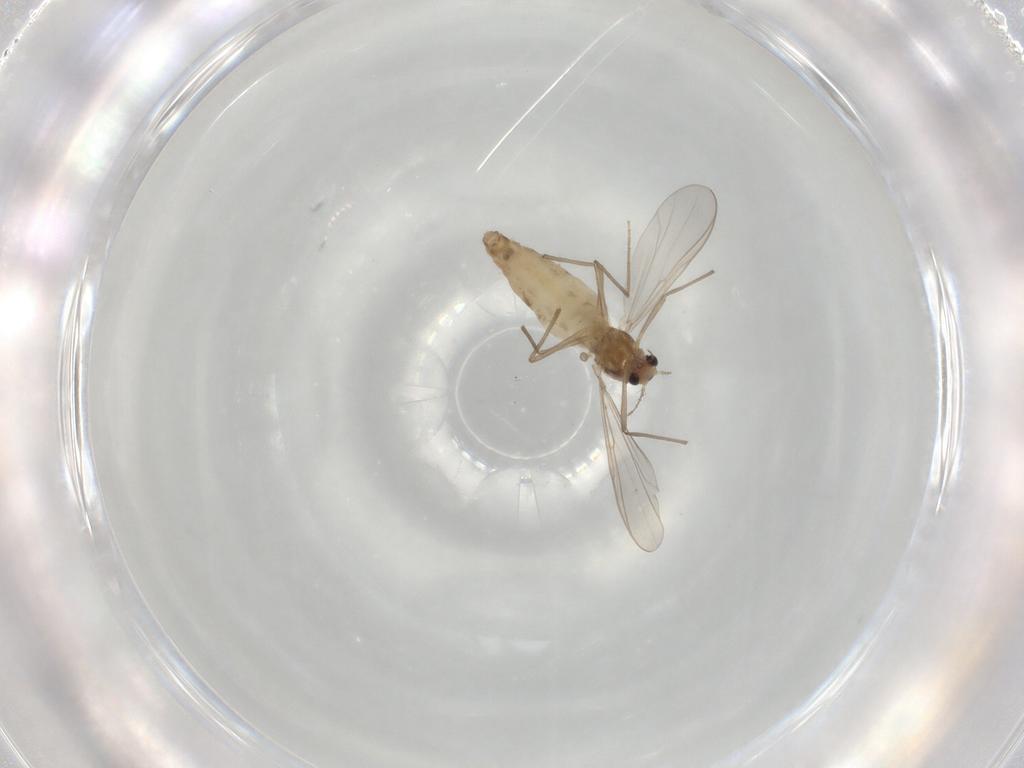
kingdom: Animalia
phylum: Arthropoda
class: Insecta
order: Diptera
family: Chironomidae
